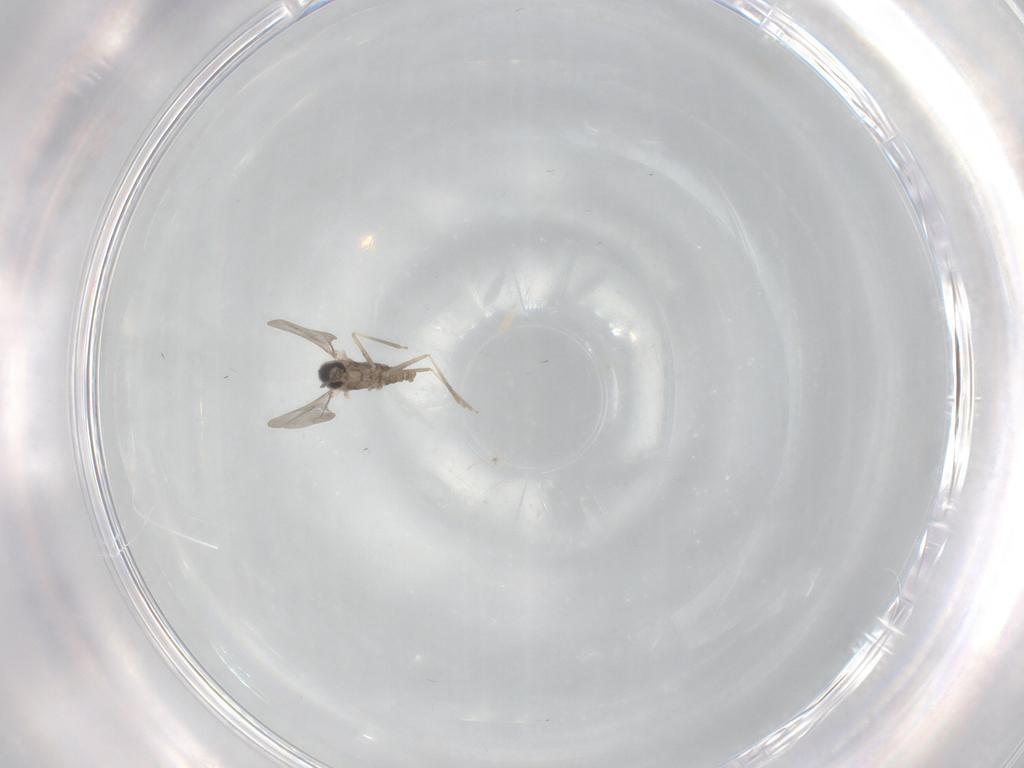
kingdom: Animalia
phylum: Arthropoda
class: Insecta
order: Diptera
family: Cecidomyiidae
